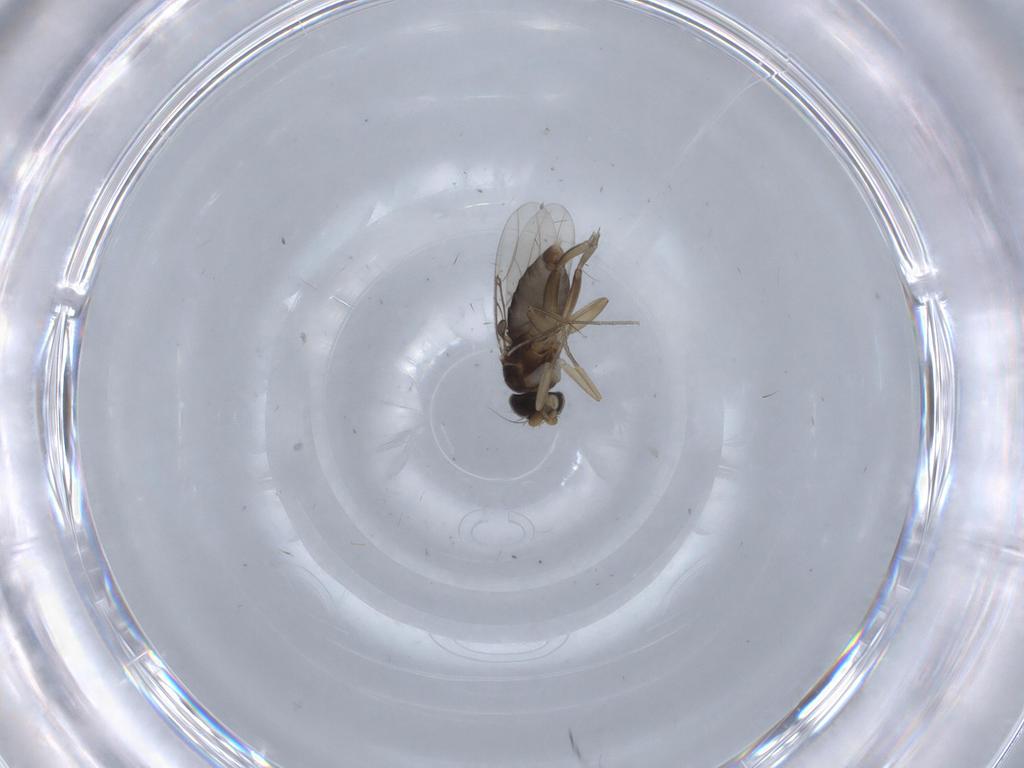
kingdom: Animalia
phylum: Arthropoda
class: Insecta
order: Diptera
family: Phoridae
